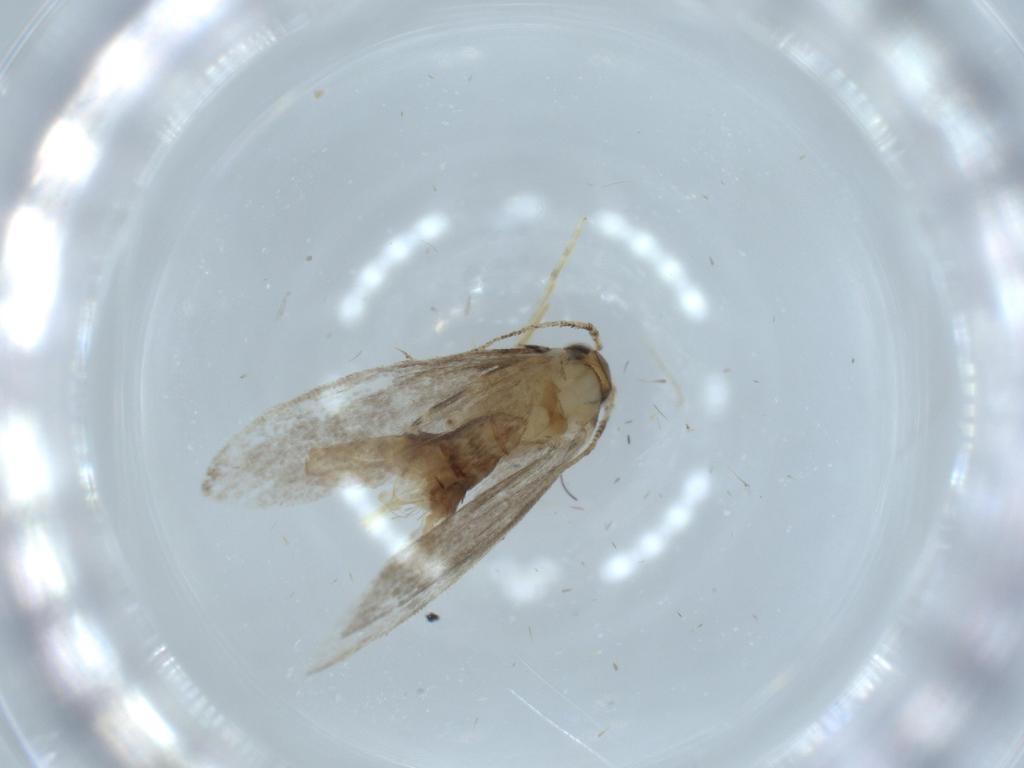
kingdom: Animalia
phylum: Arthropoda
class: Insecta
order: Lepidoptera
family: Tineidae
